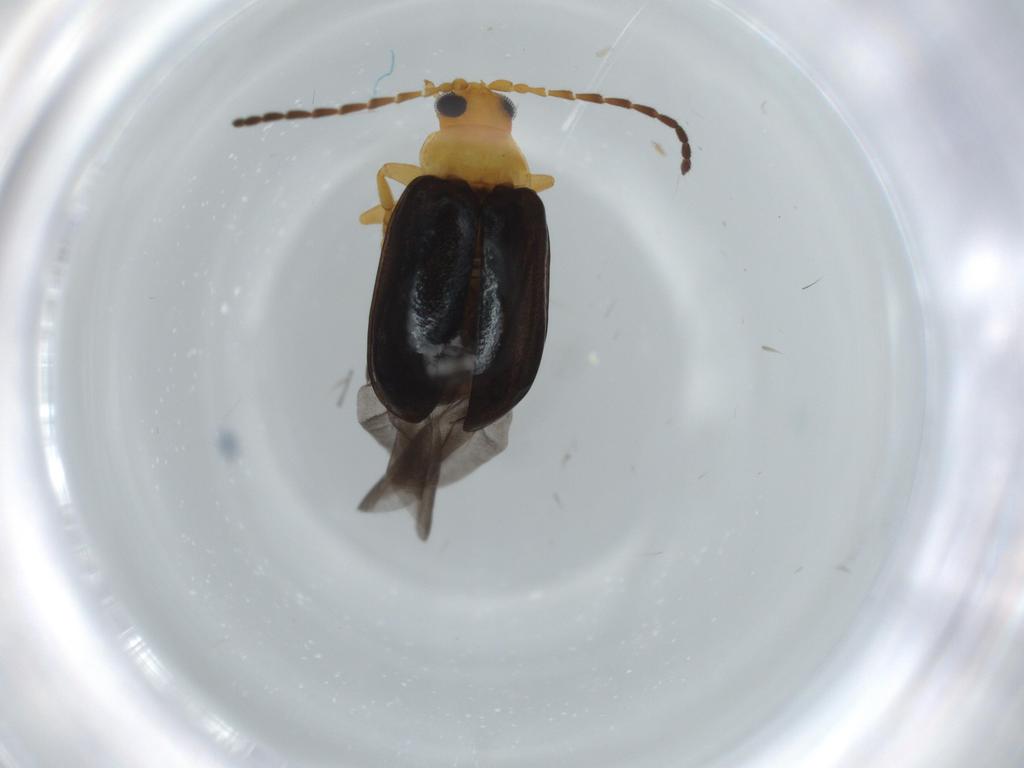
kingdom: Animalia
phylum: Arthropoda
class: Insecta
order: Coleoptera
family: Chrysomelidae
